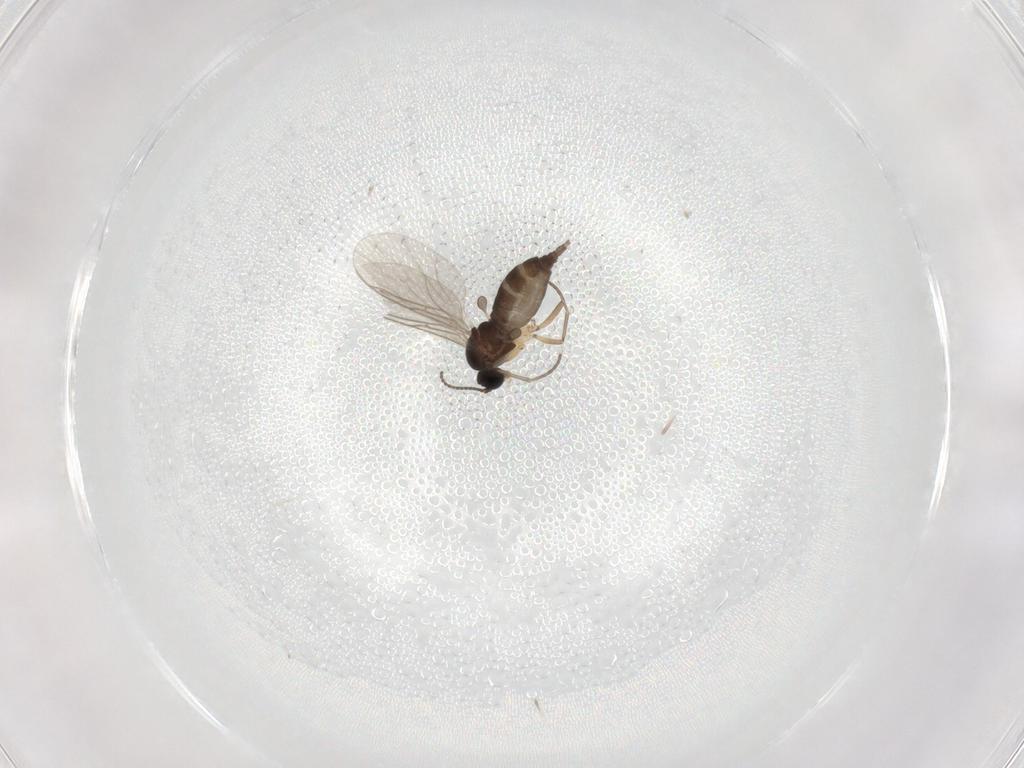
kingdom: Animalia
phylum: Arthropoda
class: Insecta
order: Diptera
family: Sciaridae
